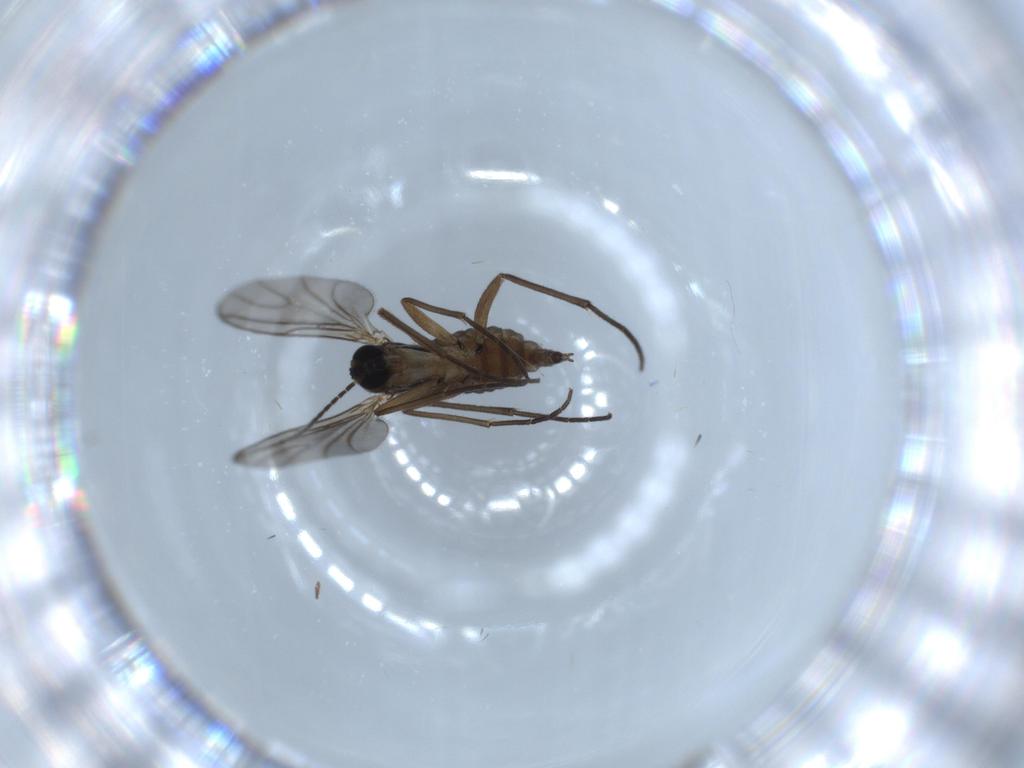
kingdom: Animalia
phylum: Arthropoda
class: Insecta
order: Diptera
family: Sciaridae
